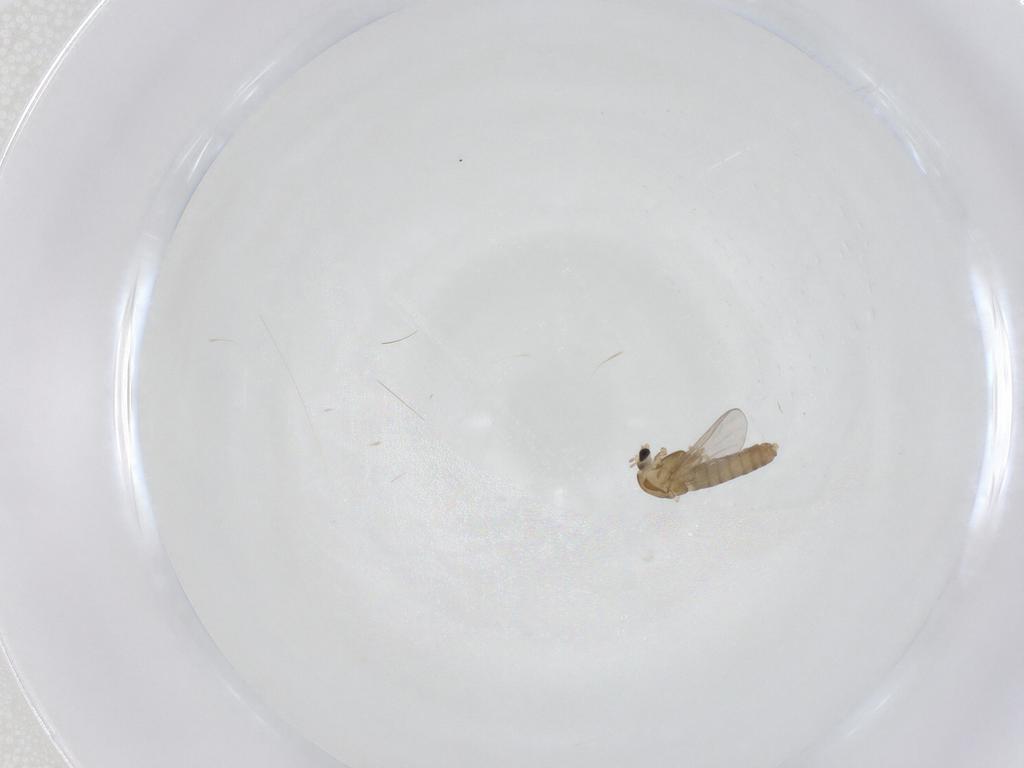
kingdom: Animalia
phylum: Arthropoda
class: Insecta
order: Diptera
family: Chironomidae
